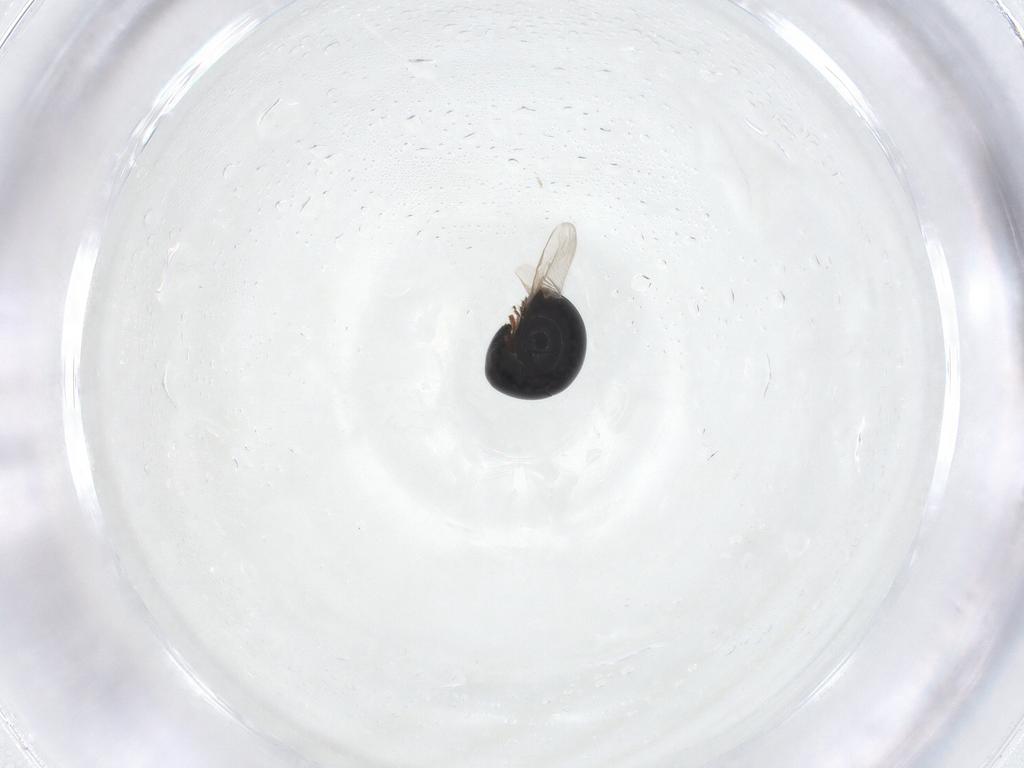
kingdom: Animalia
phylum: Arthropoda
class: Insecta
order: Coleoptera
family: Cybocephalidae
